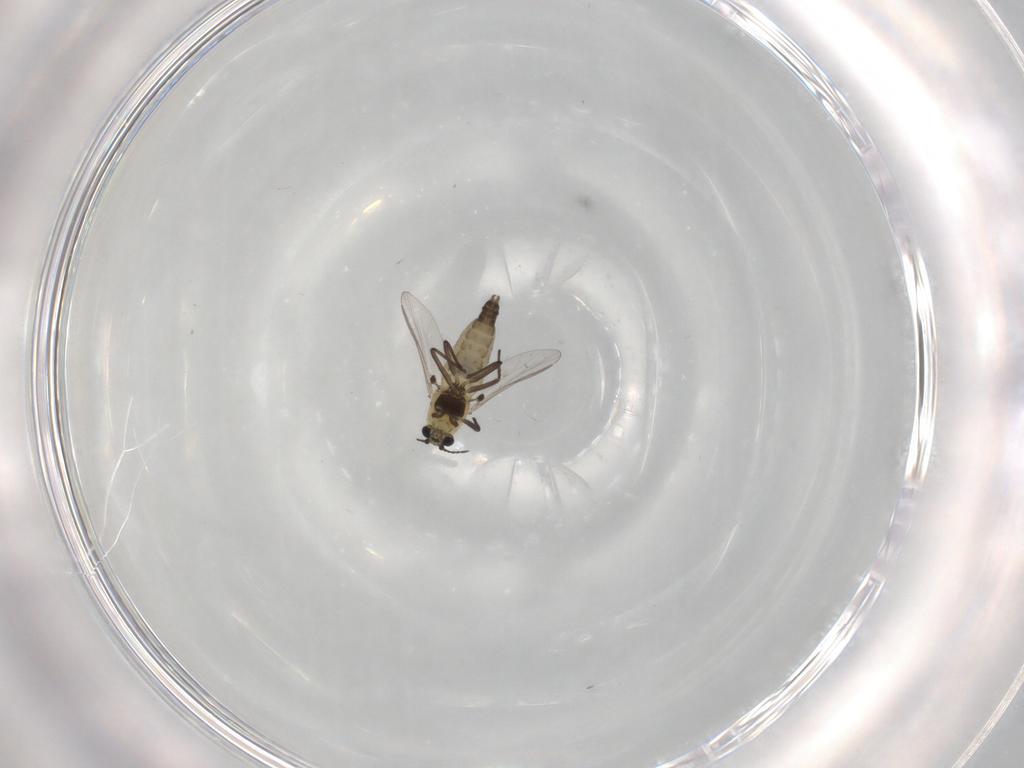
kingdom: Animalia
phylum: Arthropoda
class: Insecta
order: Diptera
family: Chironomidae
